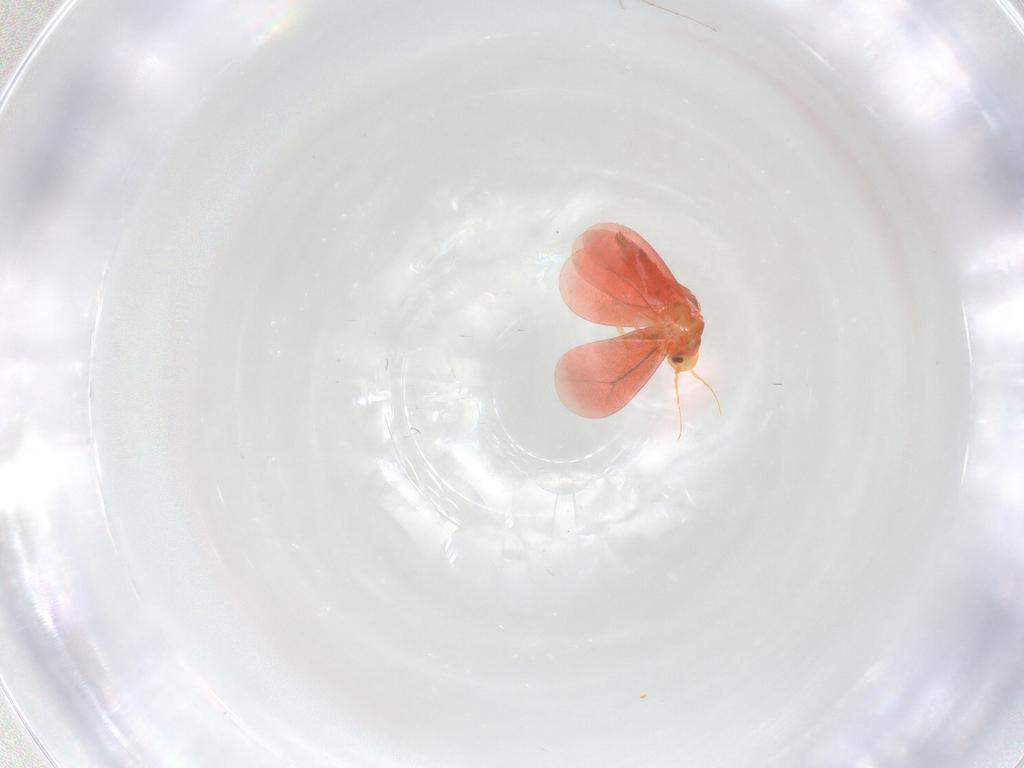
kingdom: Animalia
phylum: Arthropoda
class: Insecta
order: Hemiptera
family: Aleyrodidae
